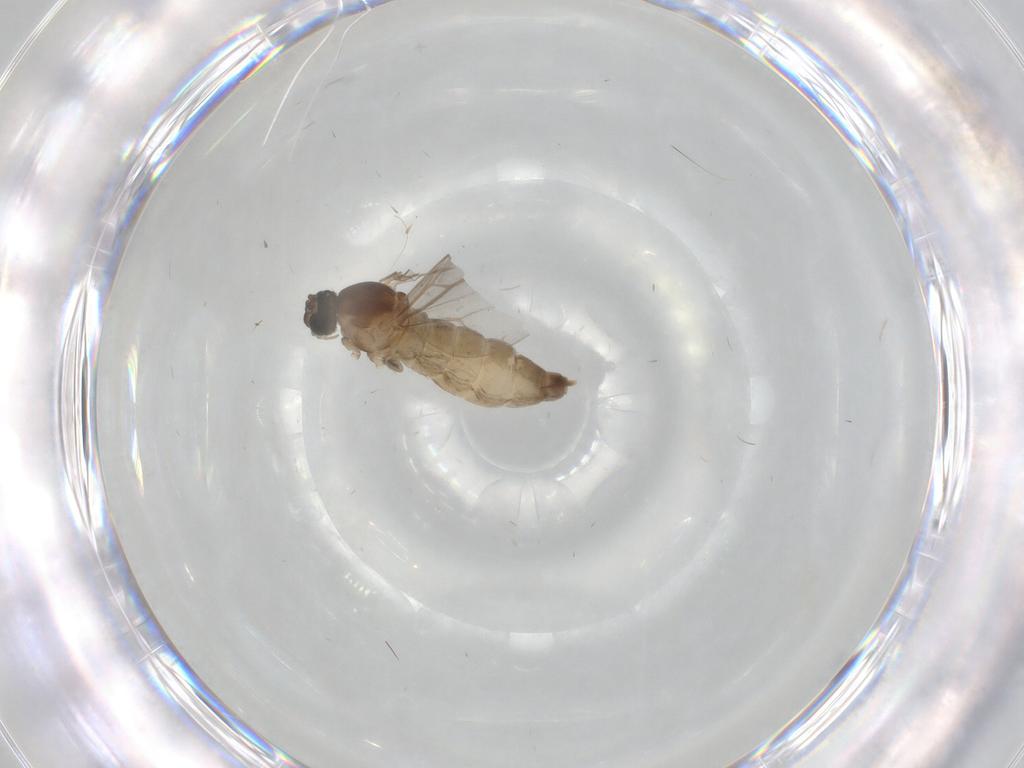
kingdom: Animalia
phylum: Arthropoda
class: Insecta
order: Diptera
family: Cecidomyiidae
